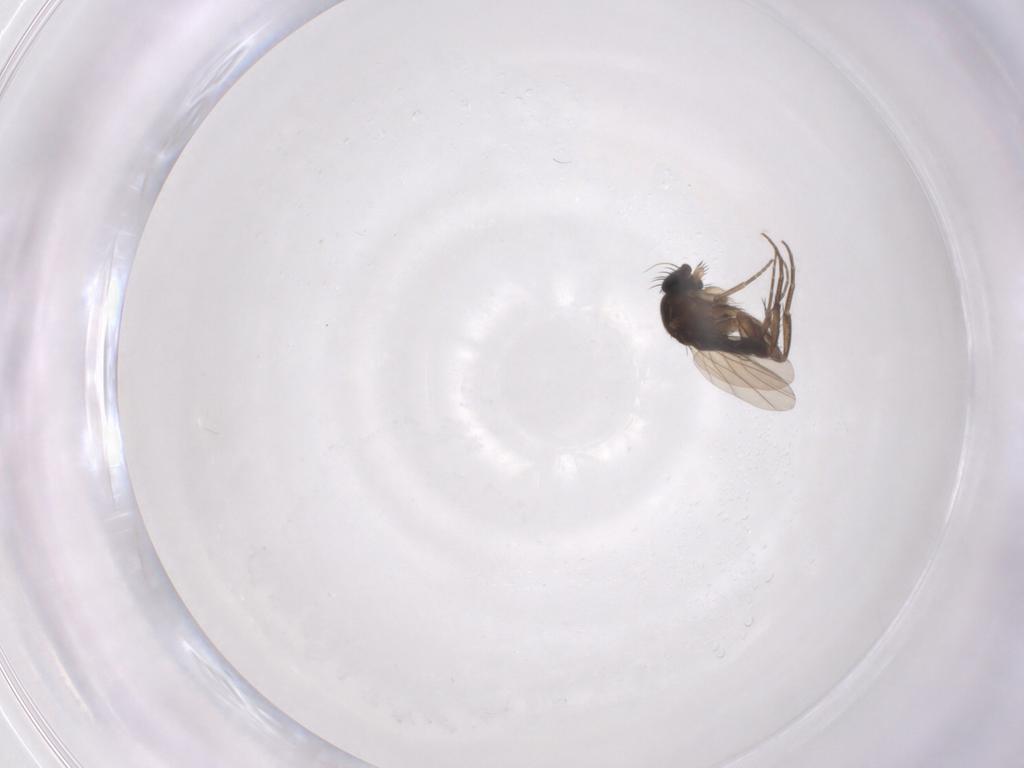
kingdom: Animalia
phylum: Arthropoda
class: Insecta
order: Diptera
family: Phoridae
